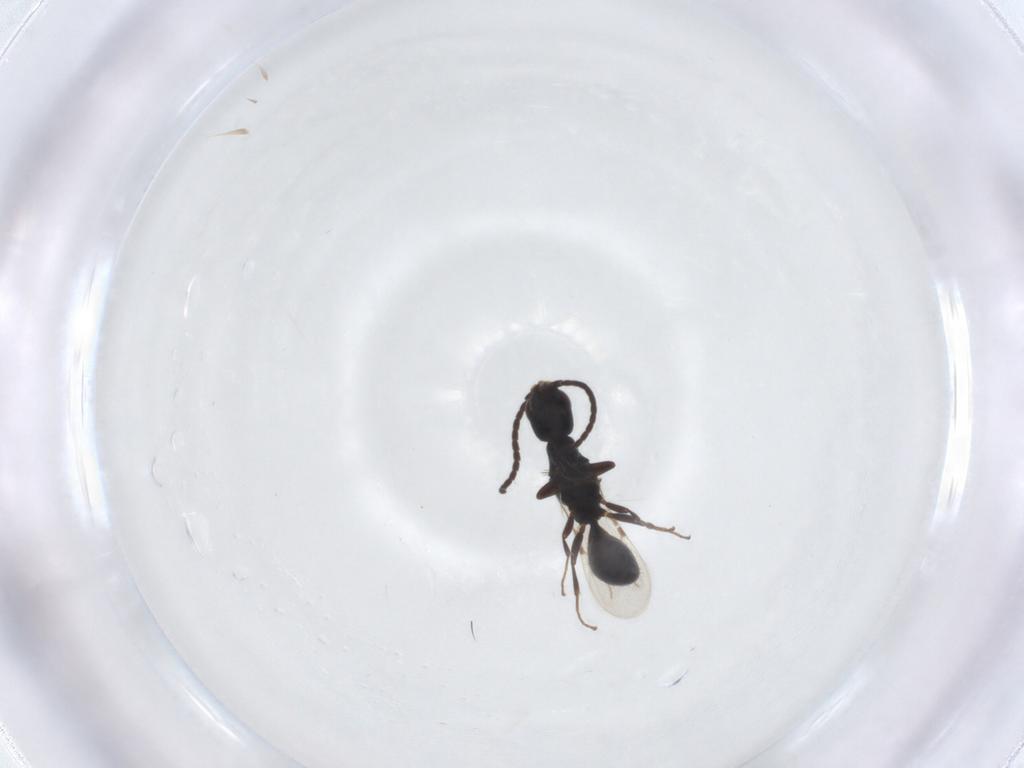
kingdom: Animalia
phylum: Arthropoda
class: Insecta
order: Hymenoptera
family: Bethylidae
